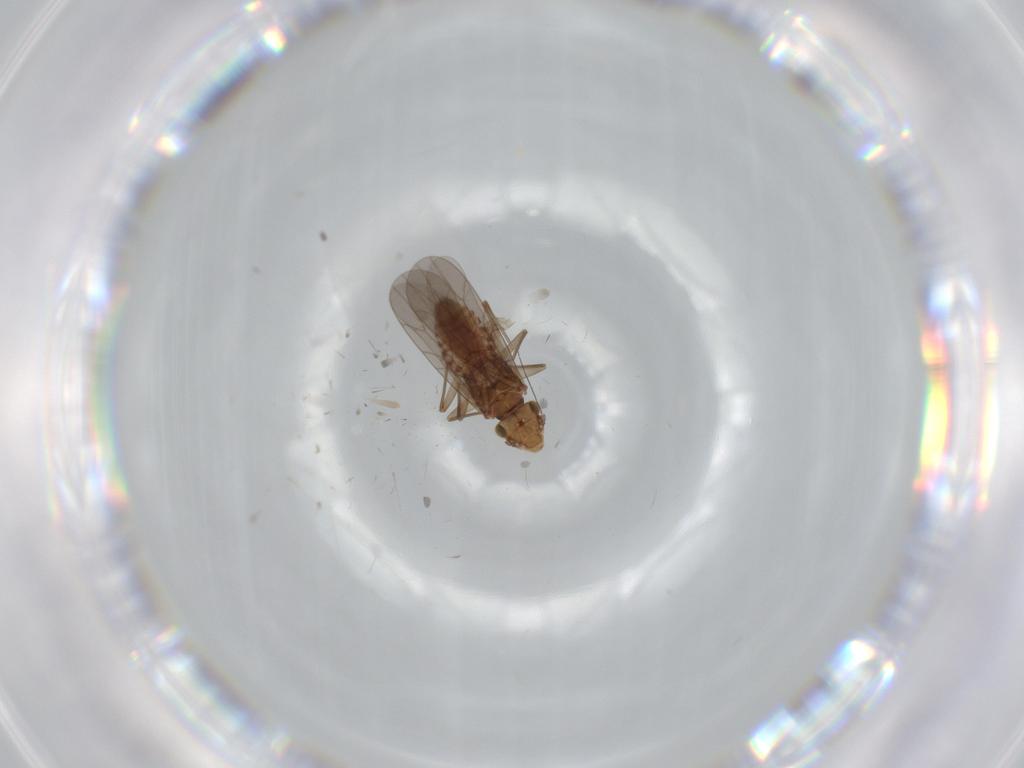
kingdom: Animalia
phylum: Arthropoda
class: Insecta
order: Psocodea
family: Lepidopsocidae
